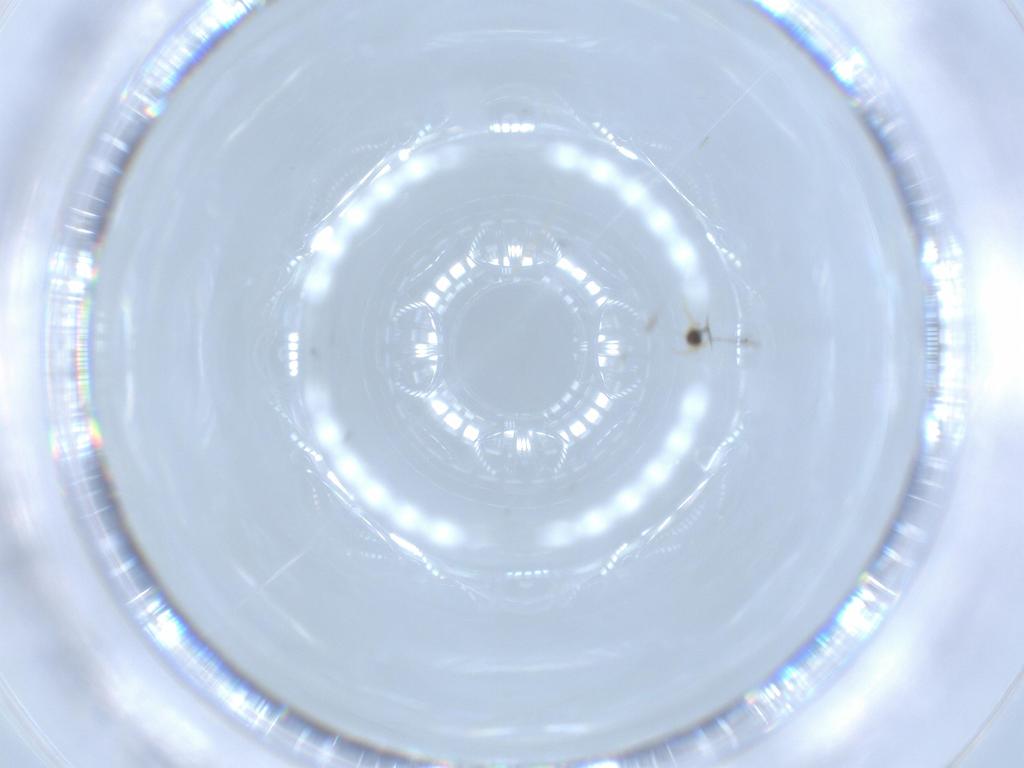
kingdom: Animalia
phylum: Arthropoda
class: Insecta
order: Hymenoptera
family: Mymaridae
